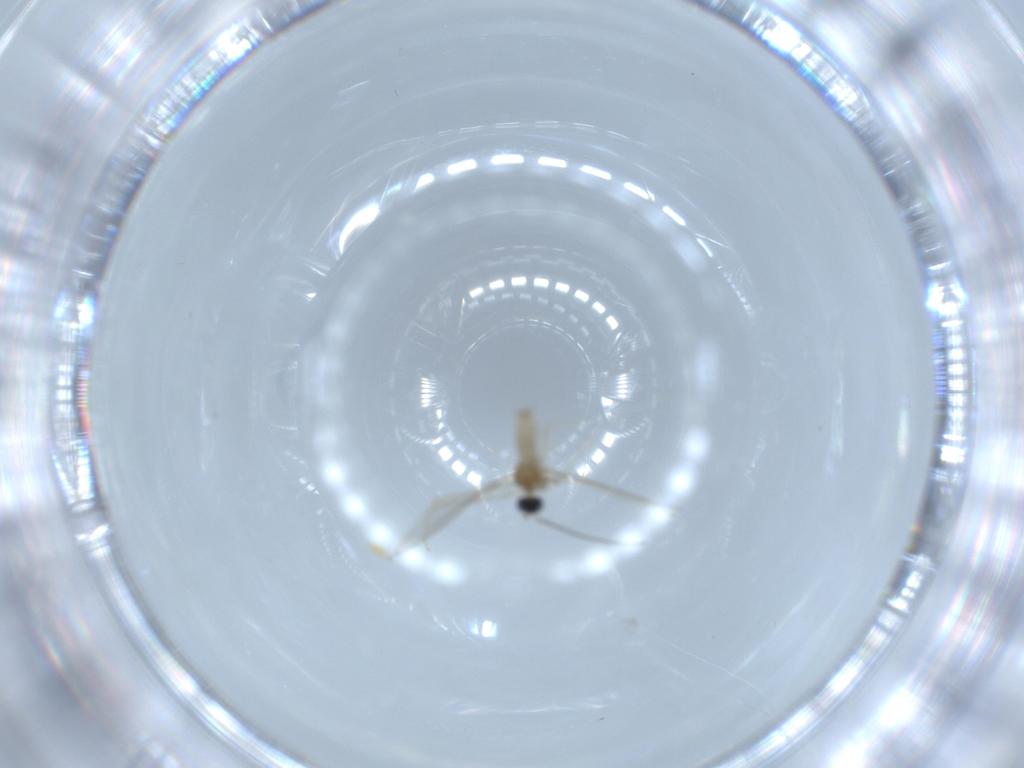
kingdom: Animalia
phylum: Arthropoda
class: Insecta
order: Diptera
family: Cecidomyiidae
